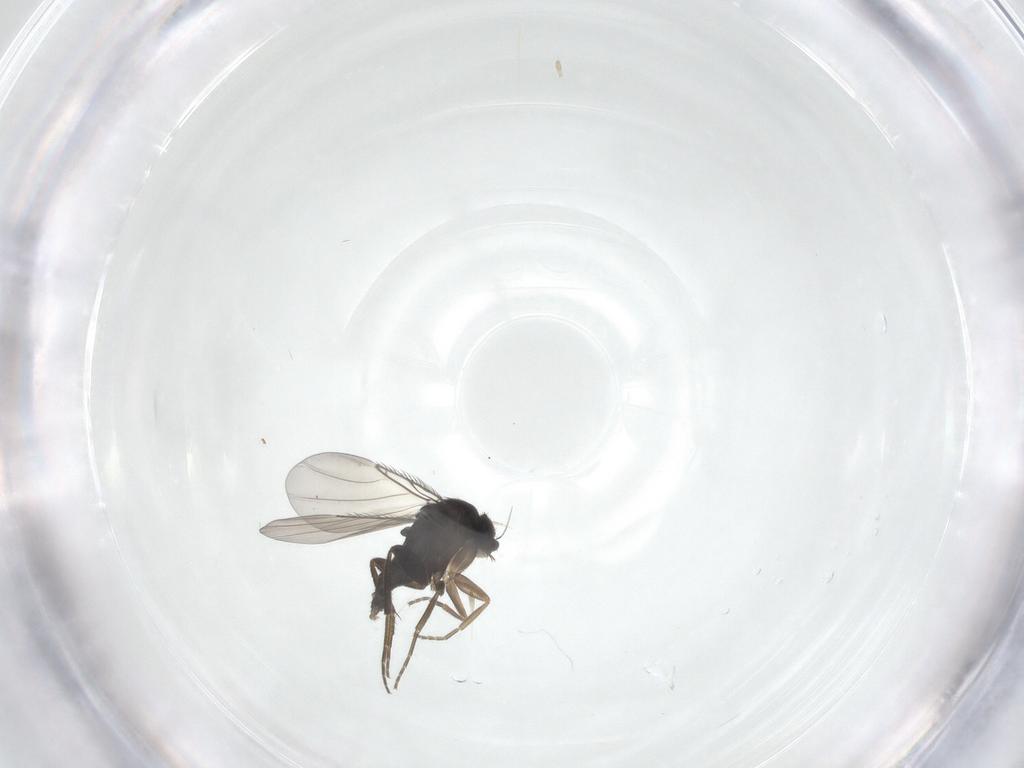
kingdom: Animalia
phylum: Arthropoda
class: Insecta
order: Diptera
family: Phoridae
